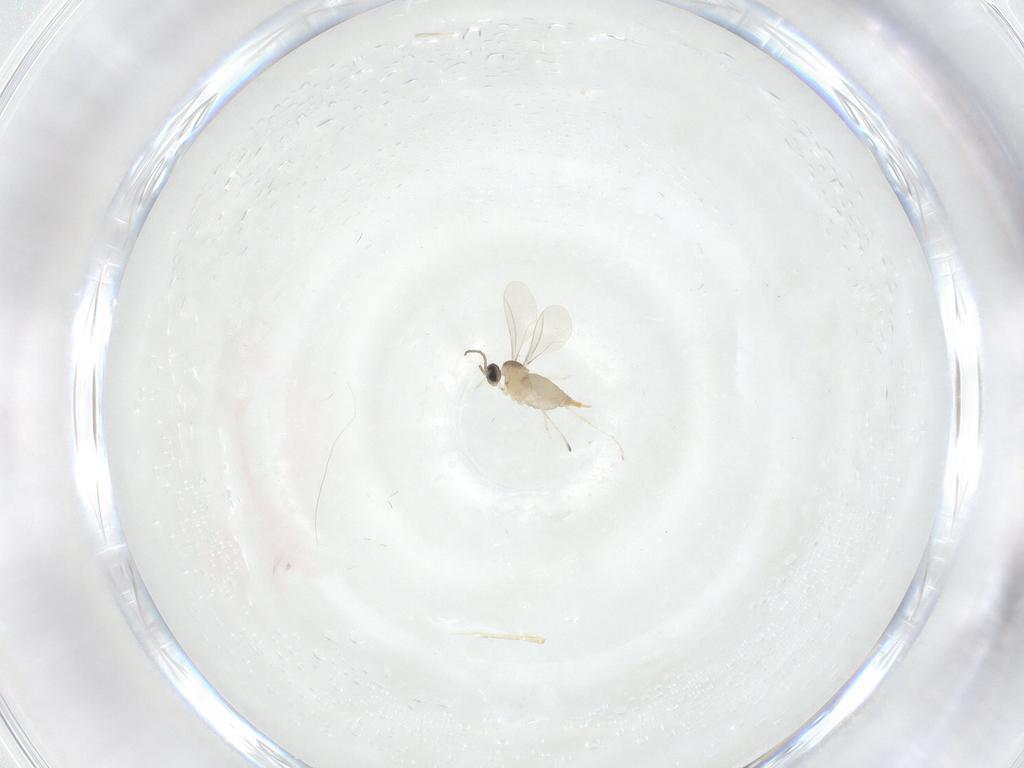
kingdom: Animalia
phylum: Arthropoda
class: Insecta
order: Diptera
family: Cecidomyiidae
